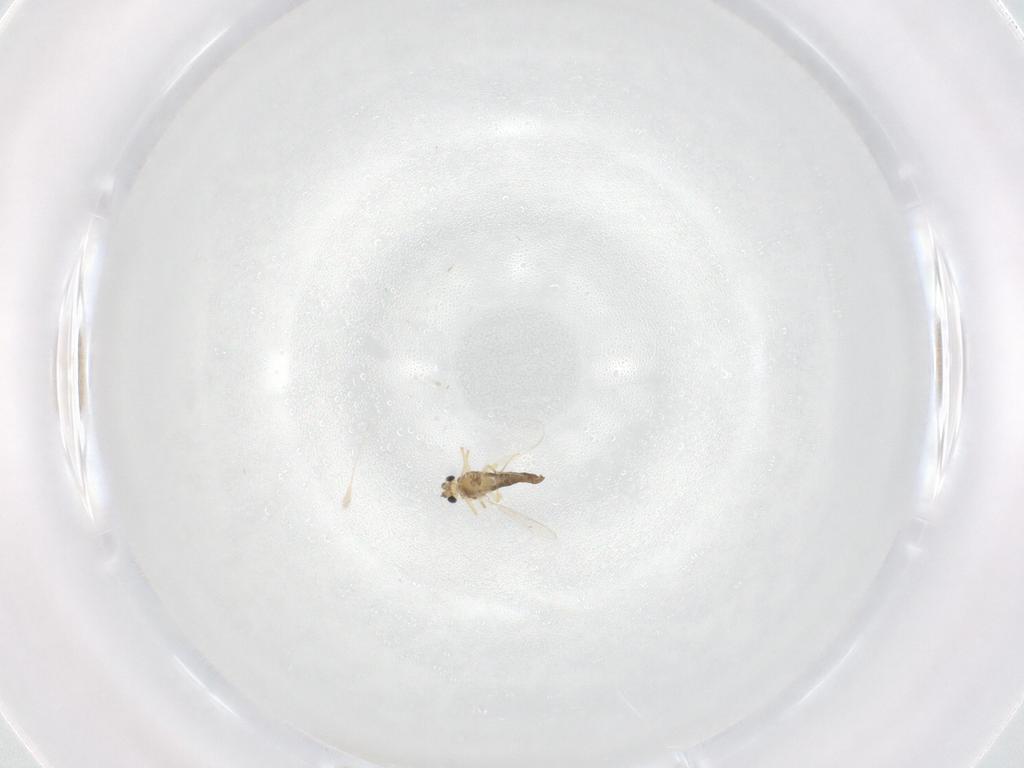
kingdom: Animalia
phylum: Arthropoda
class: Insecta
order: Diptera
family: Chironomidae
